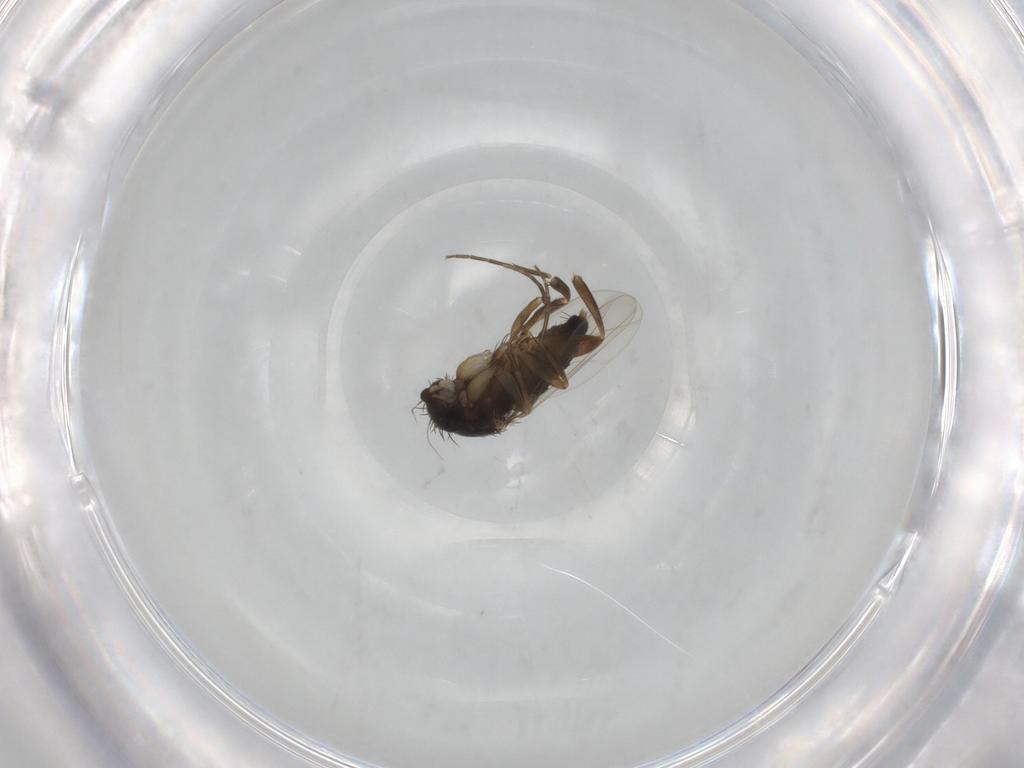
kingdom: Animalia
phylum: Arthropoda
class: Insecta
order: Diptera
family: Phoridae
